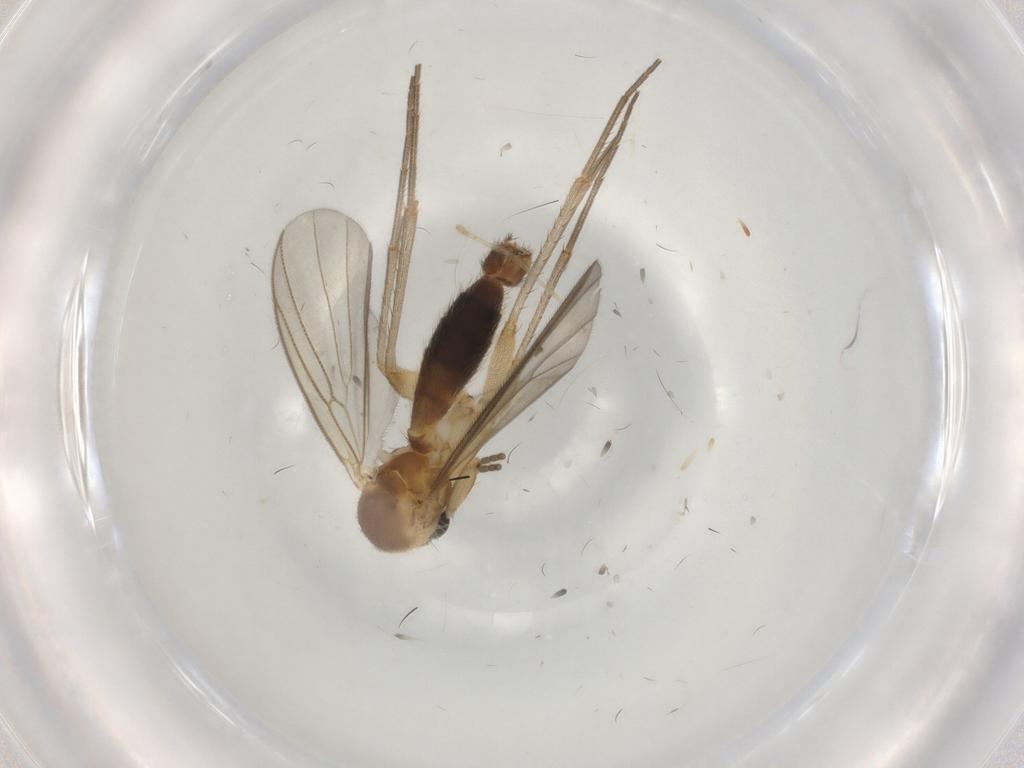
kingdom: Animalia
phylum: Arthropoda
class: Insecta
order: Diptera
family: Mycetophilidae
